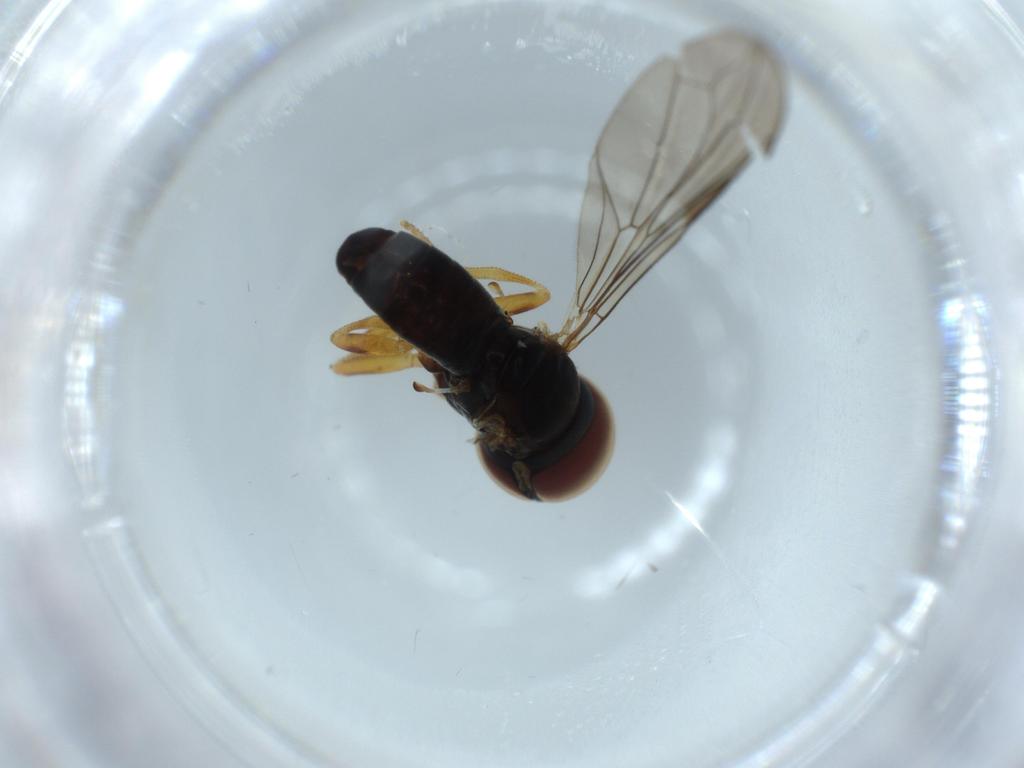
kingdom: Animalia
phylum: Arthropoda
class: Insecta
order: Diptera
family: Pipunculidae
